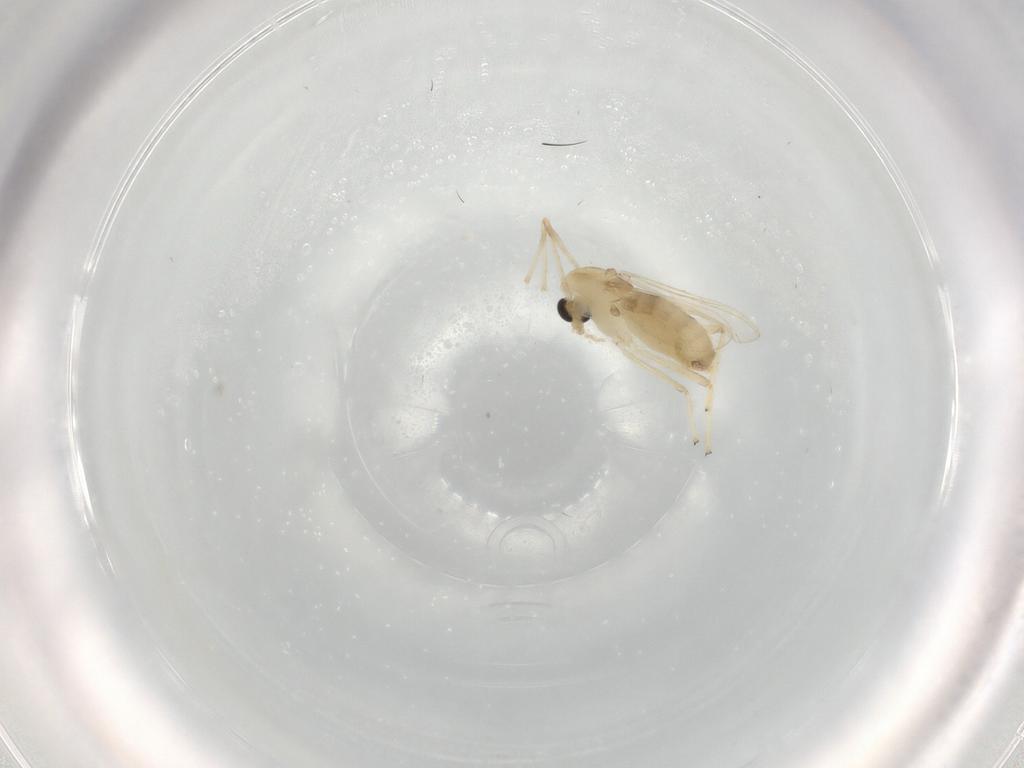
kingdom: Animalia
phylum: Arthropoda
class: Insecta
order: Diptera
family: Chironomidae
